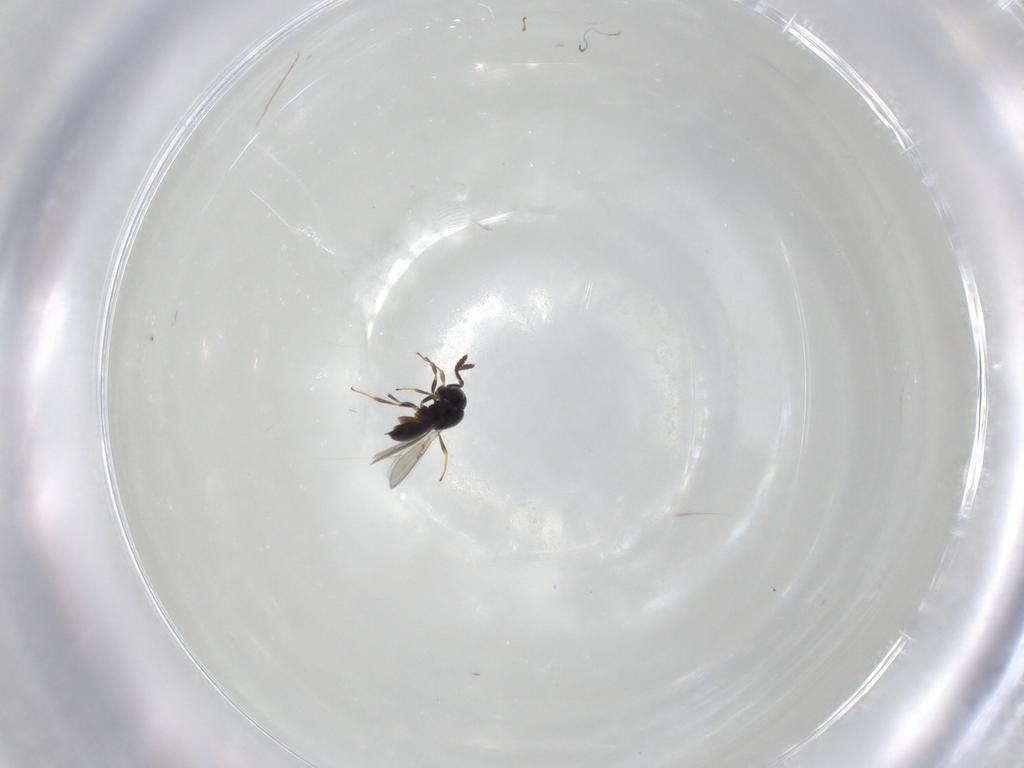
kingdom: Animalia
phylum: Arthropoda
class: Insecta
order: Hymenoptera
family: Scelionidae
